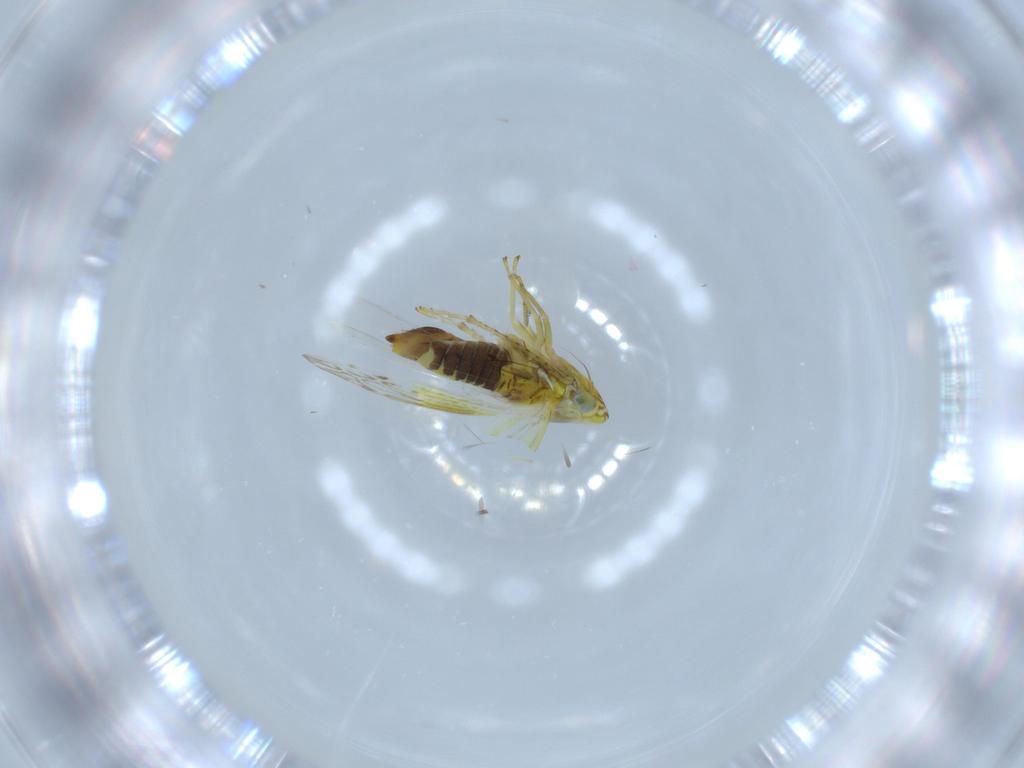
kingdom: Animalia
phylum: Arthropoda
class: Insecta
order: Hemiptera
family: Cicadellidae
